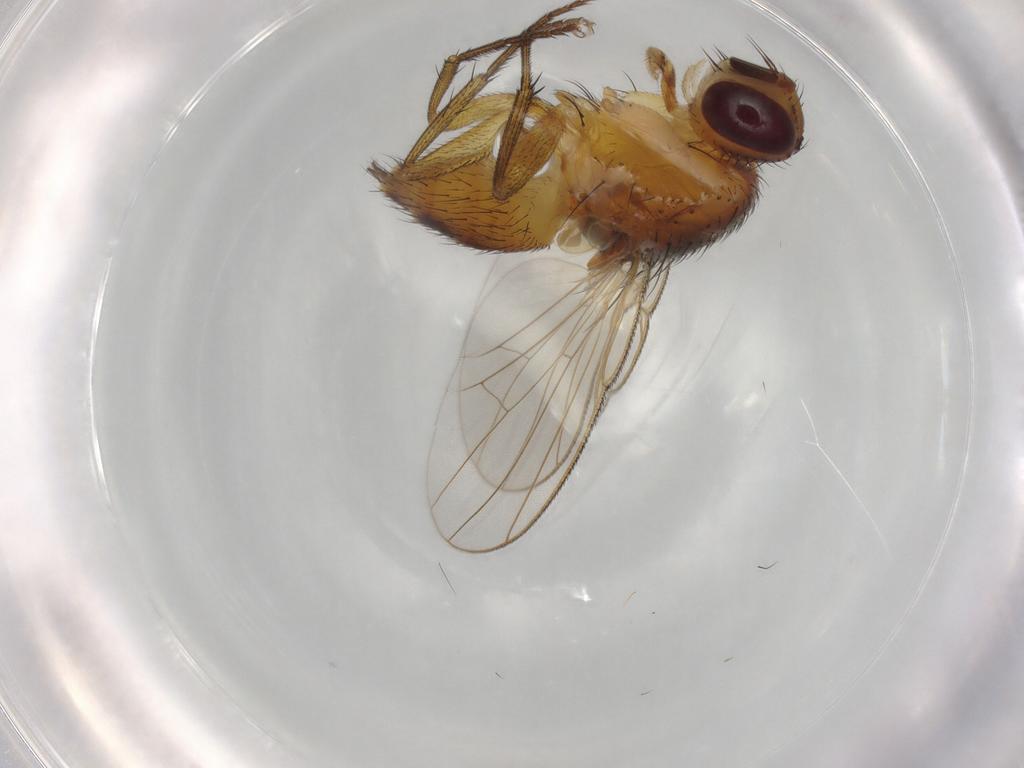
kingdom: Animalia
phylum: Arthropoda
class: Insecta
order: Diptera
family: Muscidae
